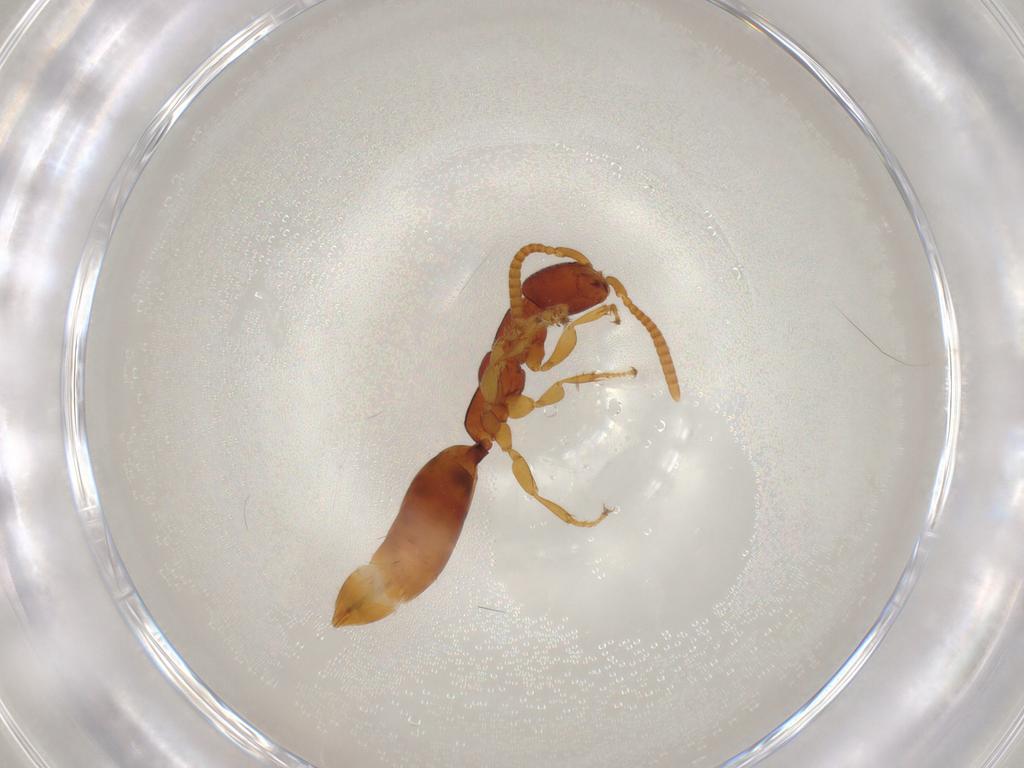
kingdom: Animalia
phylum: Arthropoda
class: Insecta
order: Hymenoptera
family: Bethylidae
